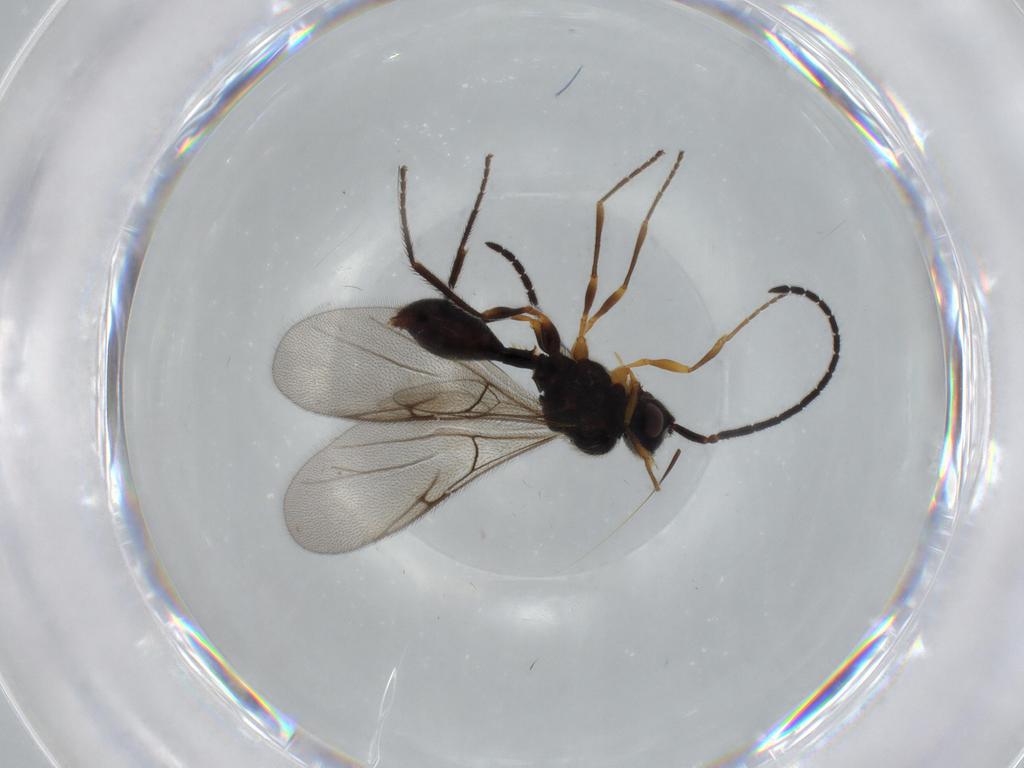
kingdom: Animalia
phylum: Arthropoda
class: Insecta
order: Hymenoptera
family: Diapriidae
